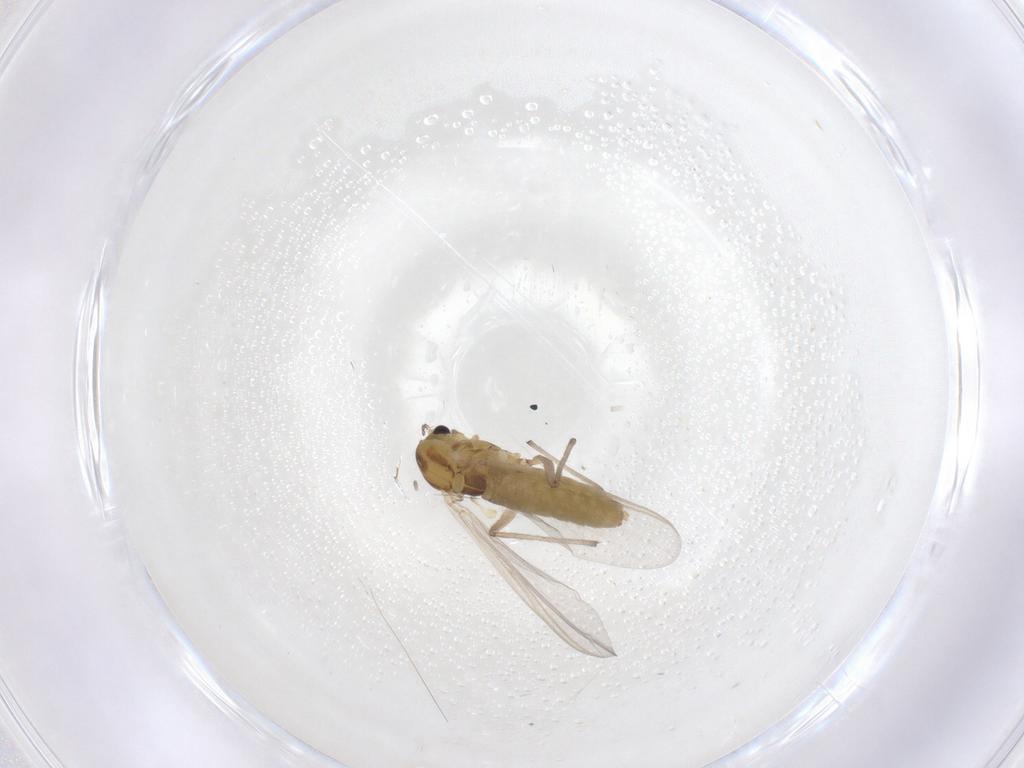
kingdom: Animalia
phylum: Arthropoda
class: Insecta
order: Diptera
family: Chironomidae
